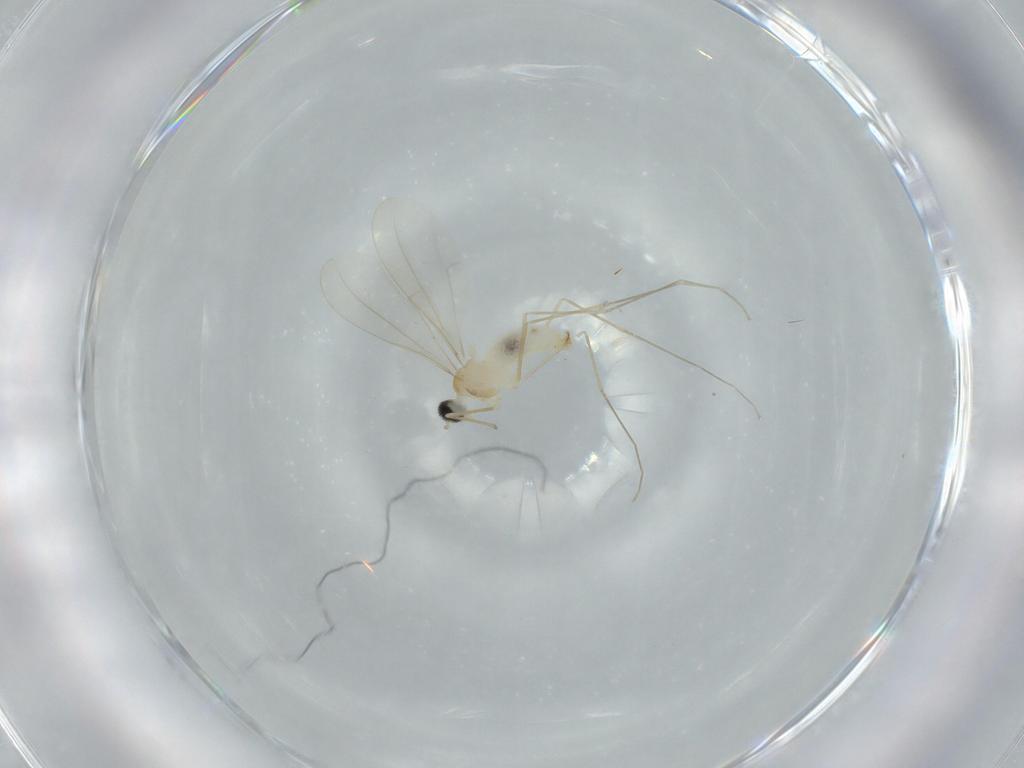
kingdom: Animalia
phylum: Arthropoda
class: Insecta
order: Diptera
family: Cecidomyiidae
